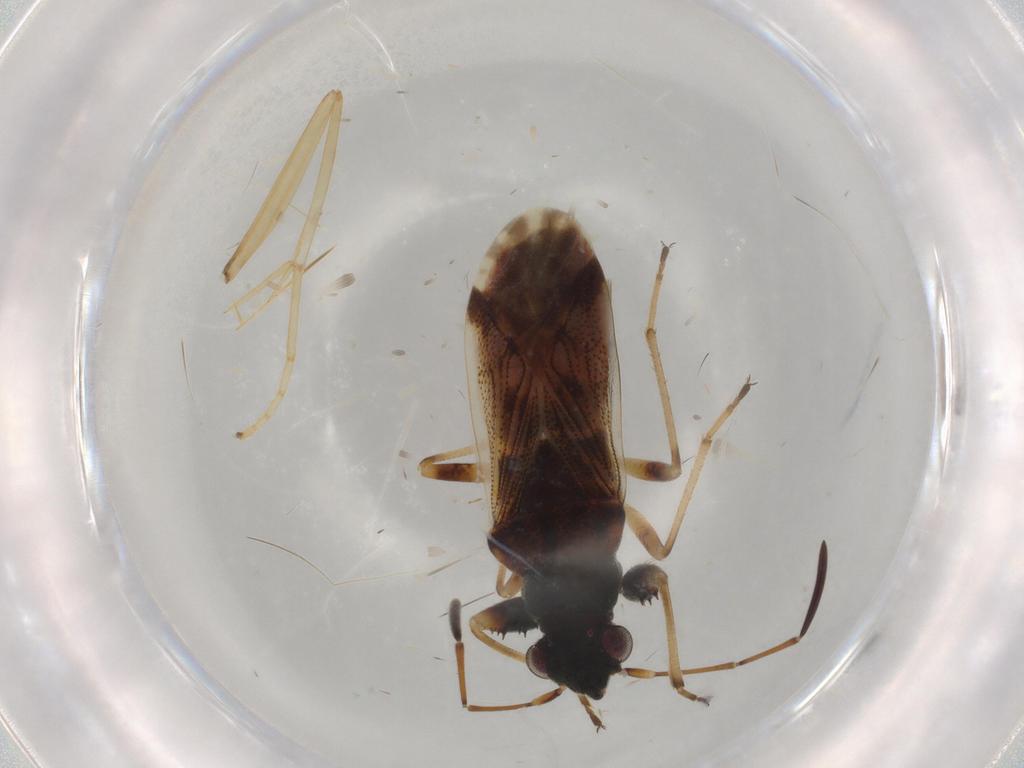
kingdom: Animalia
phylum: Arthropoda
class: Insecta
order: Hemiptera
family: Rhyparochromidae
